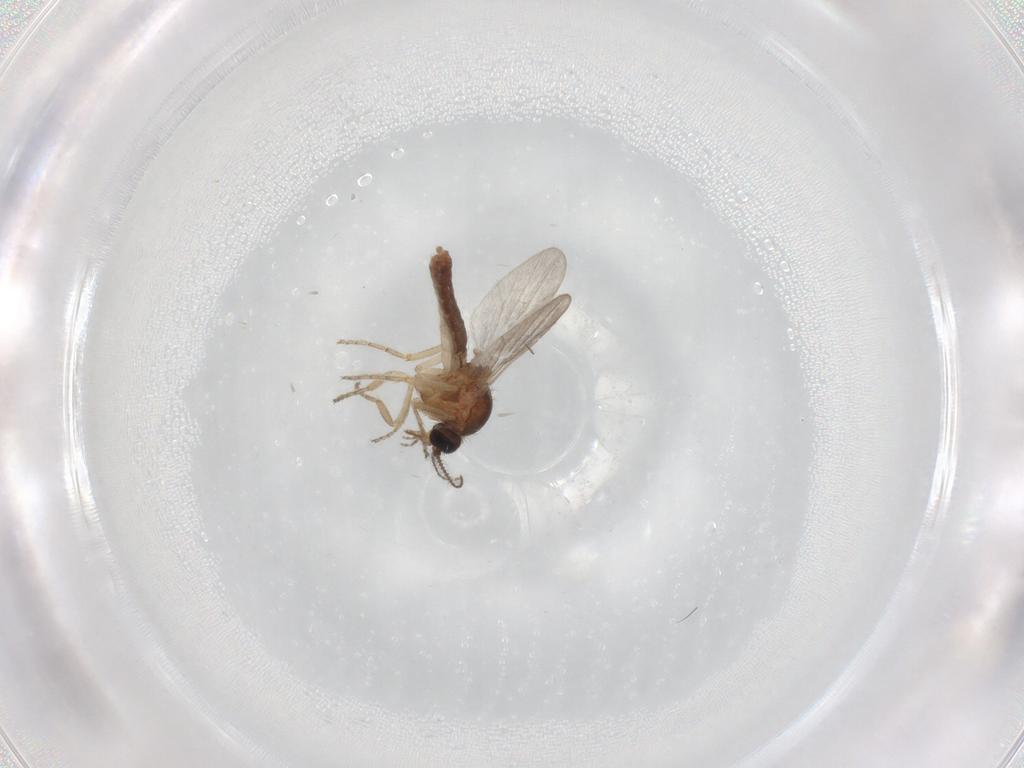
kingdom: Animalia
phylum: Arthropoda
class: Insecta
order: Diptera
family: Ceratopogonidae
